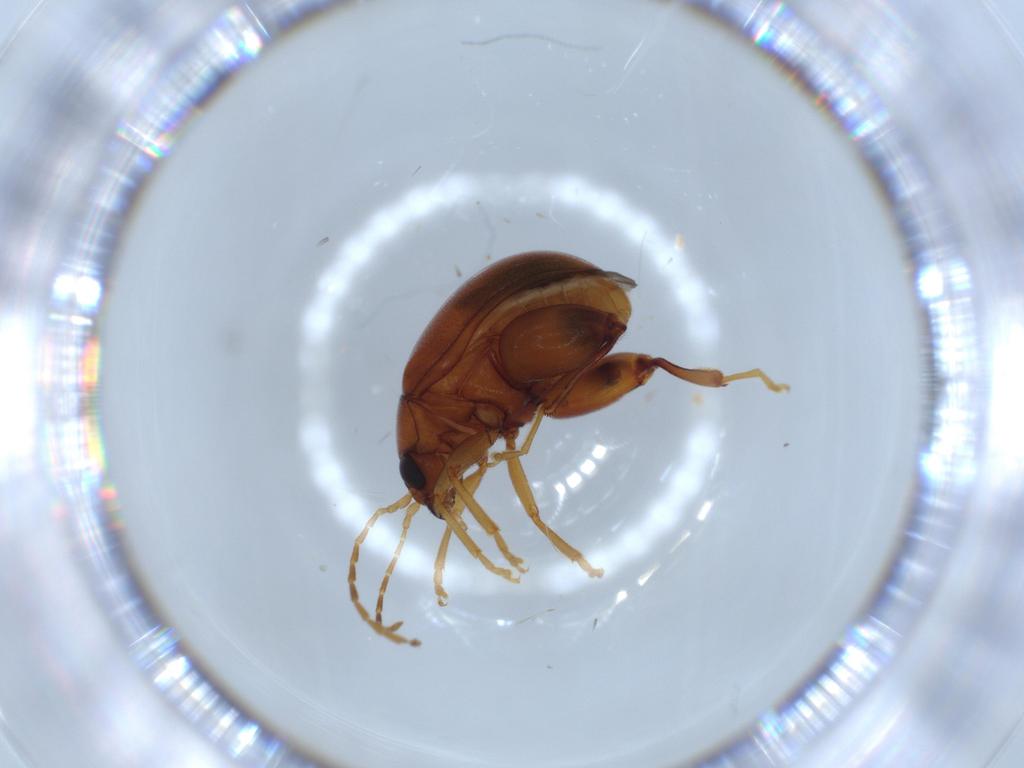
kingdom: Animalia
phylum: Arthropoda
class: Insecta
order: Coleoptera
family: Chrysomelidae
